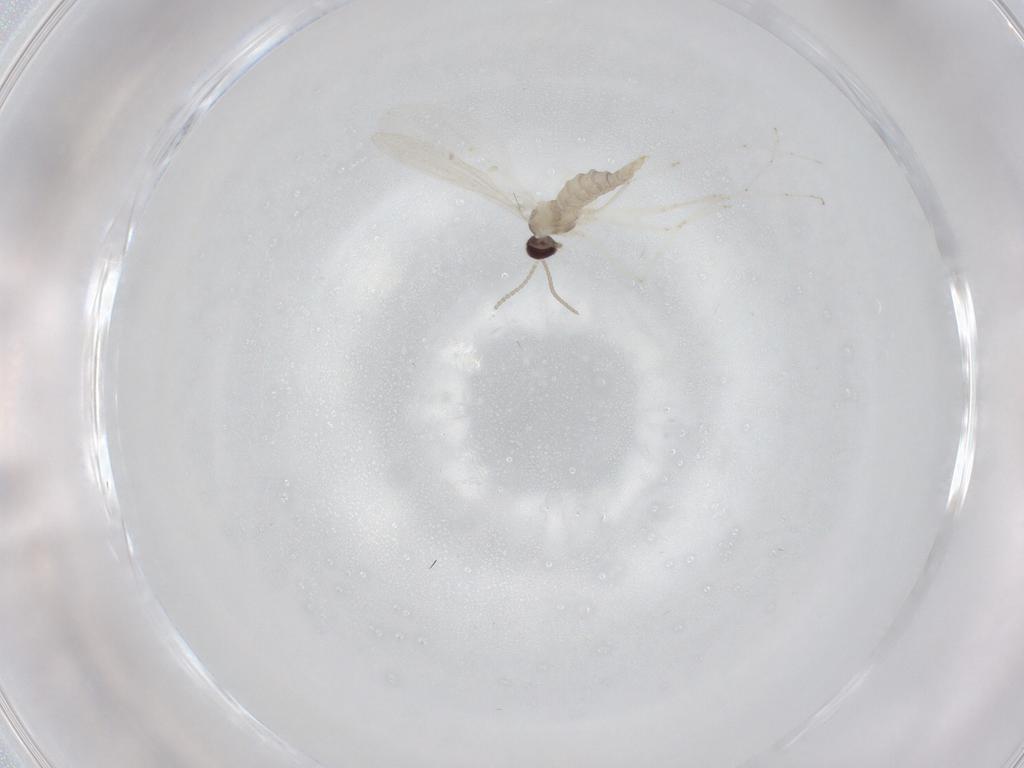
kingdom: Animalia
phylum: Arthropoda
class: Insecta
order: Diptera
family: Cecidomyiidae
